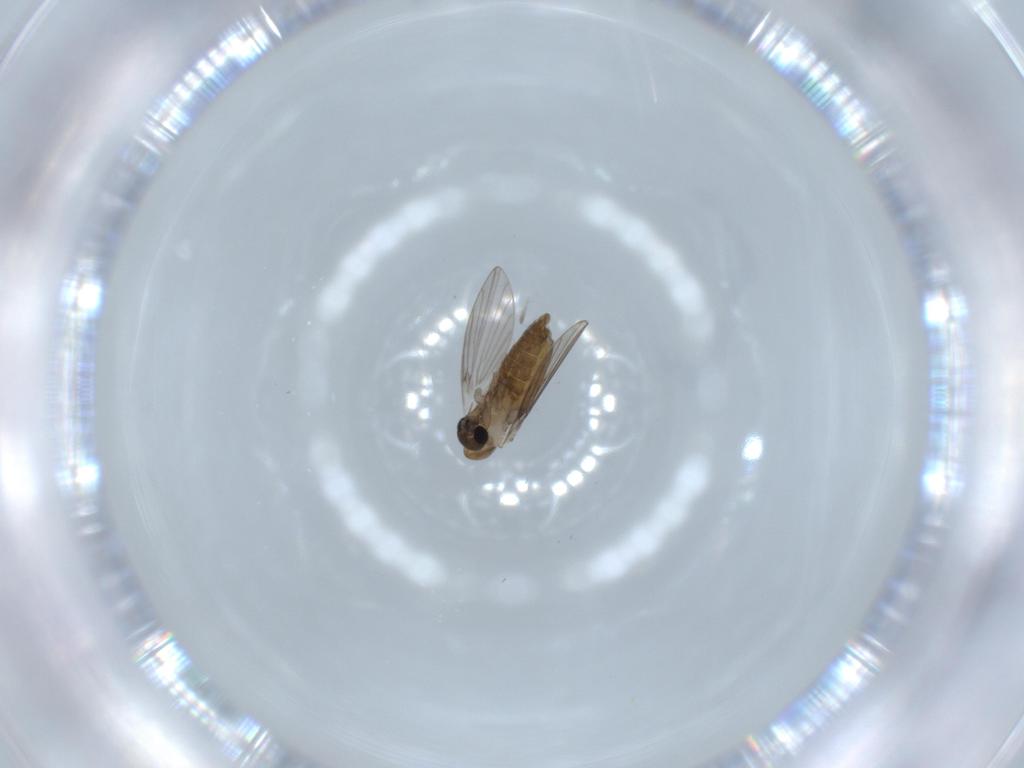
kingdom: Animalia
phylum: Arthropoda
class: Insecta
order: Diptera
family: Psychodidae
